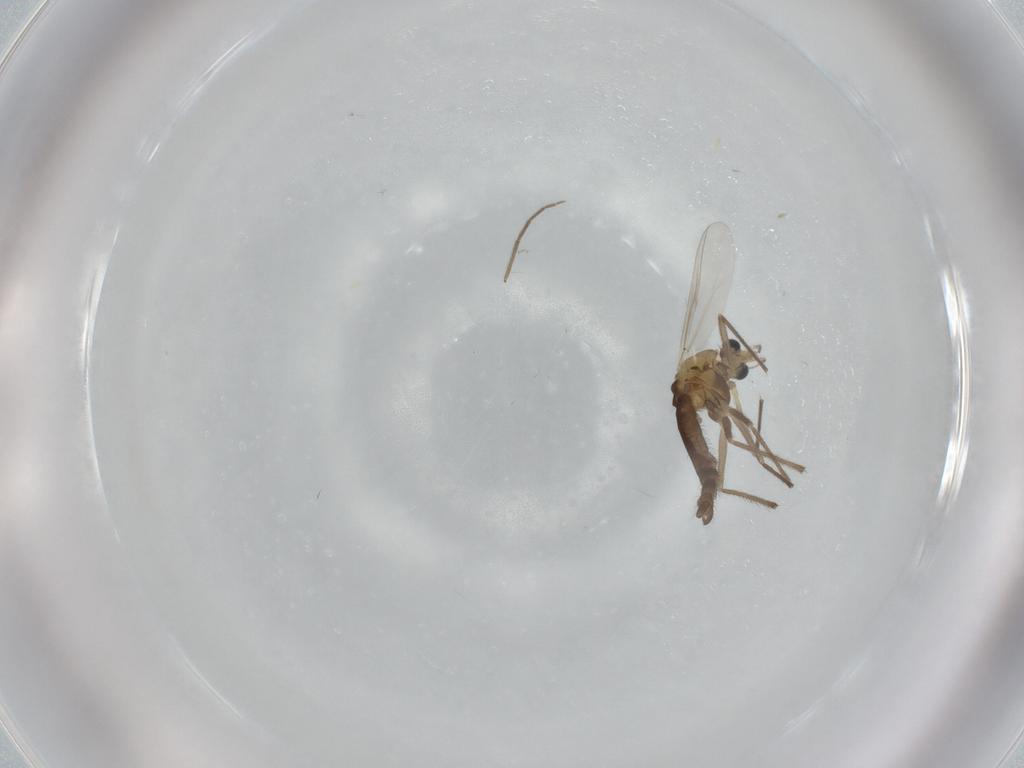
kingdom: Animalia
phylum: Arthropoda
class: Insecta
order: Diptera
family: Chironomidae
